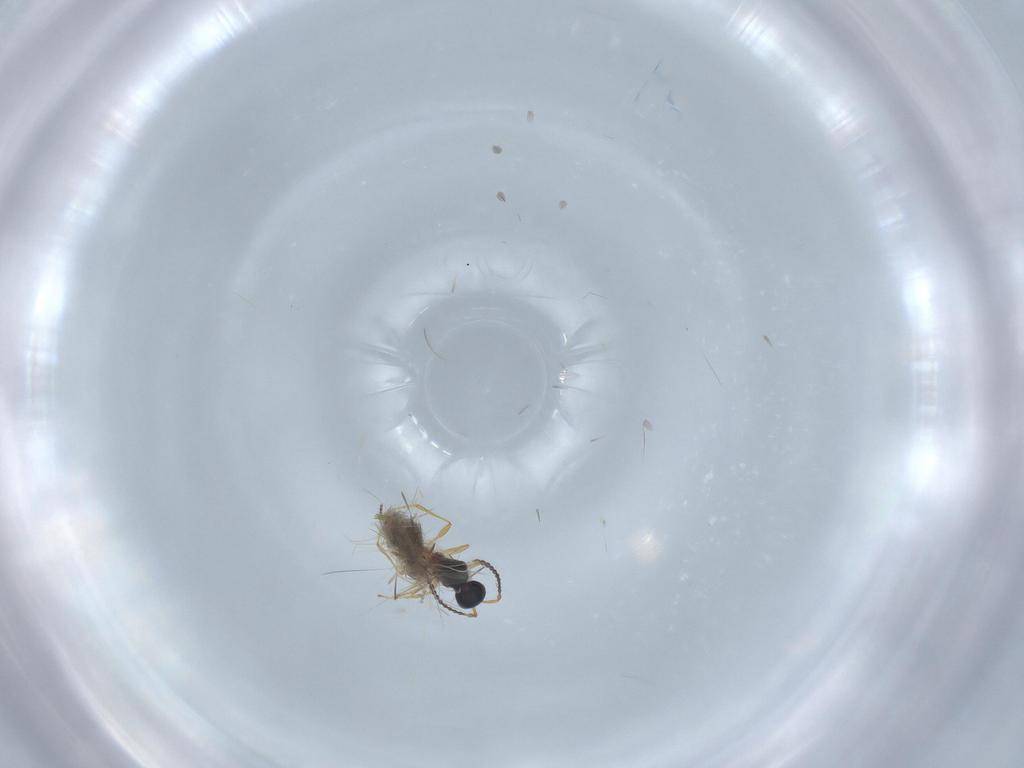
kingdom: Animalia
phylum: Arthropoda
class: Insecta
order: Hymenoptera
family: Diapriidae
